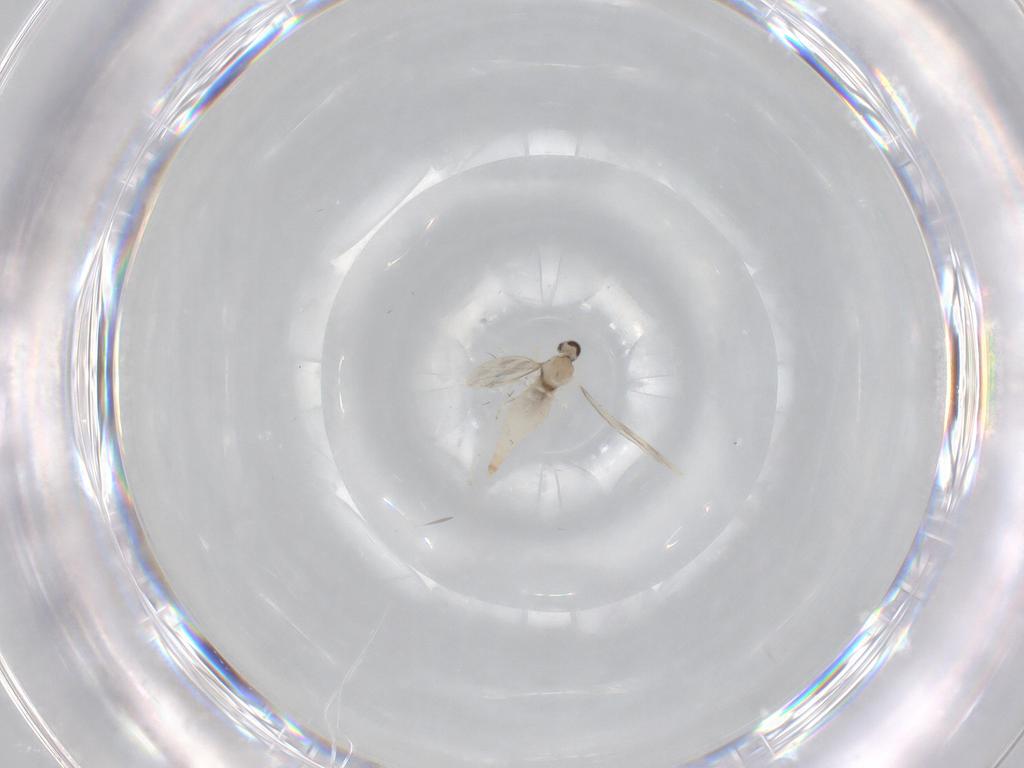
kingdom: Animalia
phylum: Arthropoda
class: Insecta
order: Diptera
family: Cecidomyiidae
